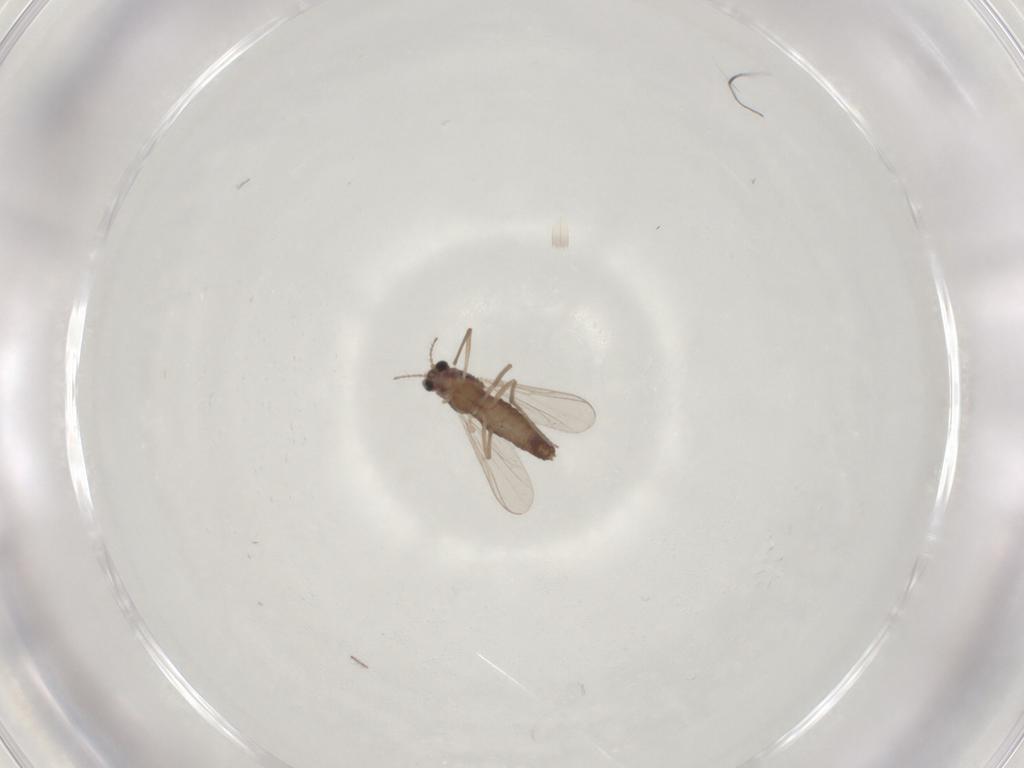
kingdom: Animalia
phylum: Arthropoda
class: Insecta
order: Diptera
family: Chironomidae
